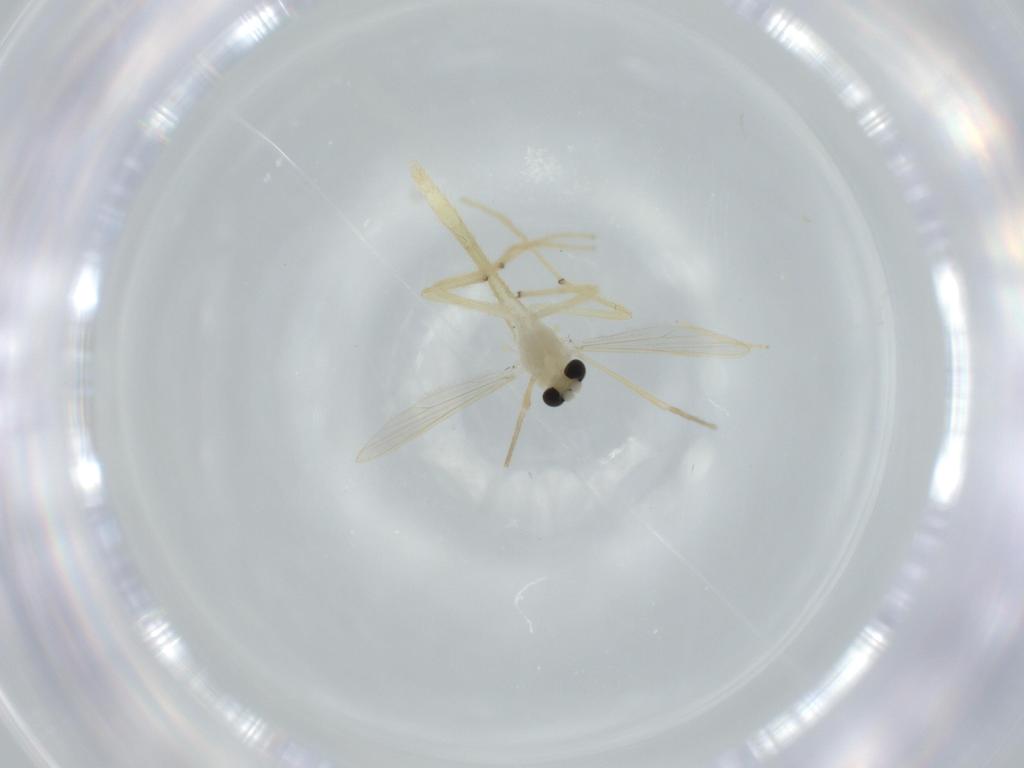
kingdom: Animalia
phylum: Arthropoda
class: Insecta
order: Diptera
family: Chironomidae
